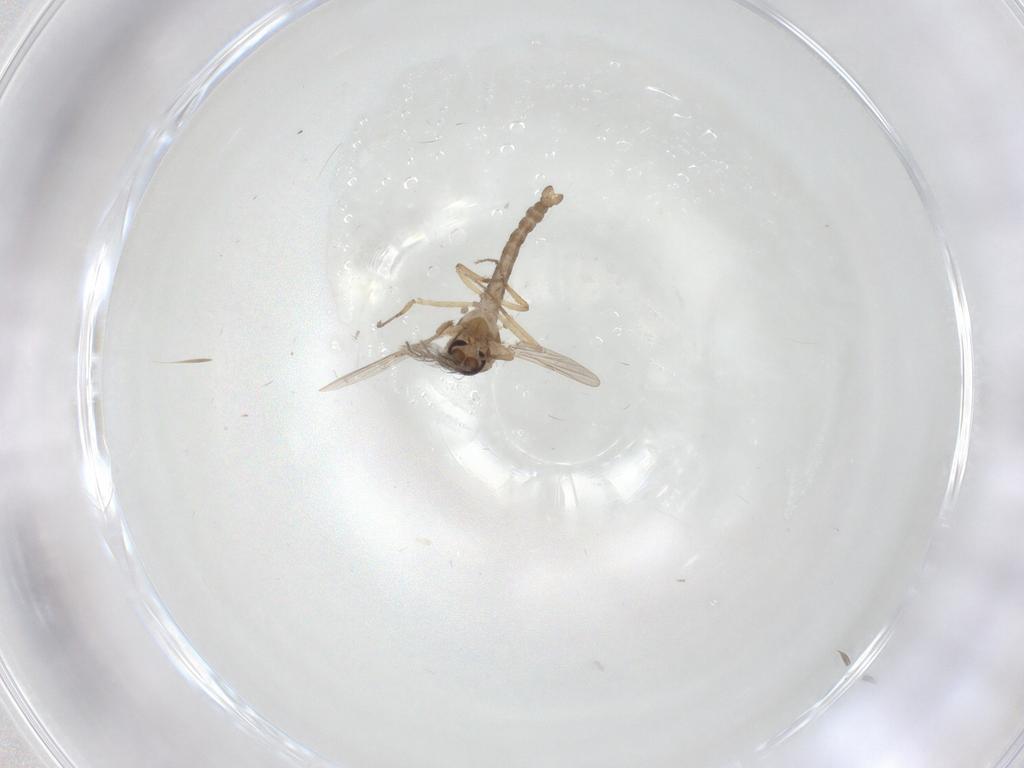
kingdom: Animalia
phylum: Arthropoda
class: Insecta
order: Diptera
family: Ceratopogonidae
